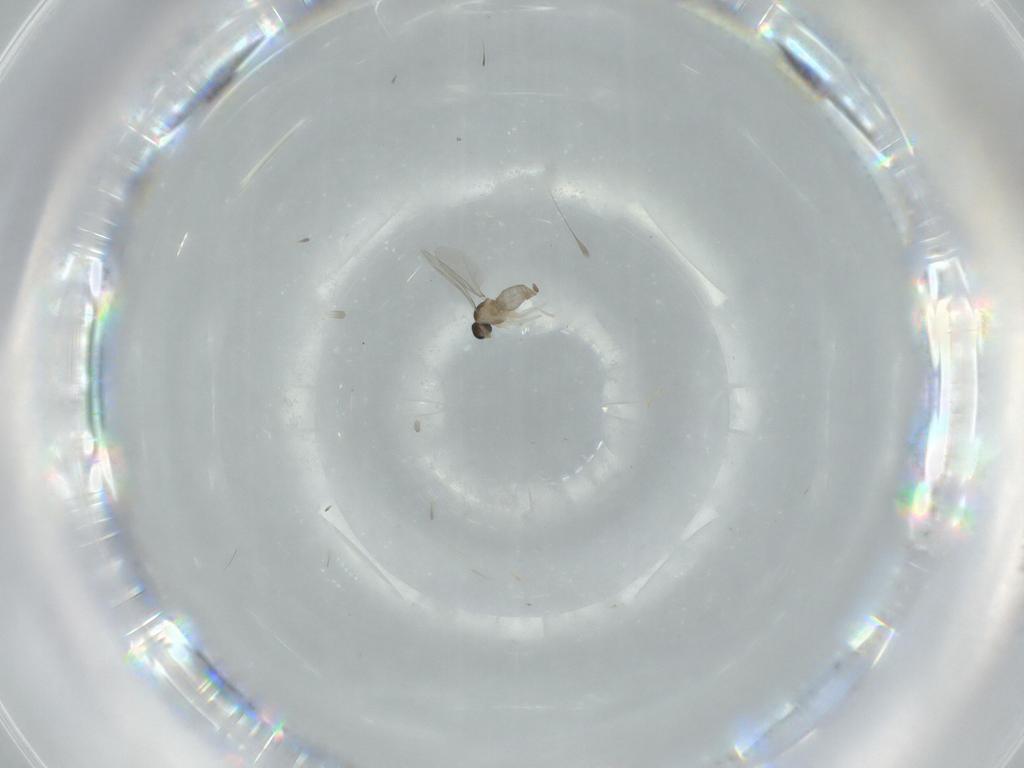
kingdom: Animalia
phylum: Arthropoda
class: Insecta
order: Diptera
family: Cecidomyiidae
